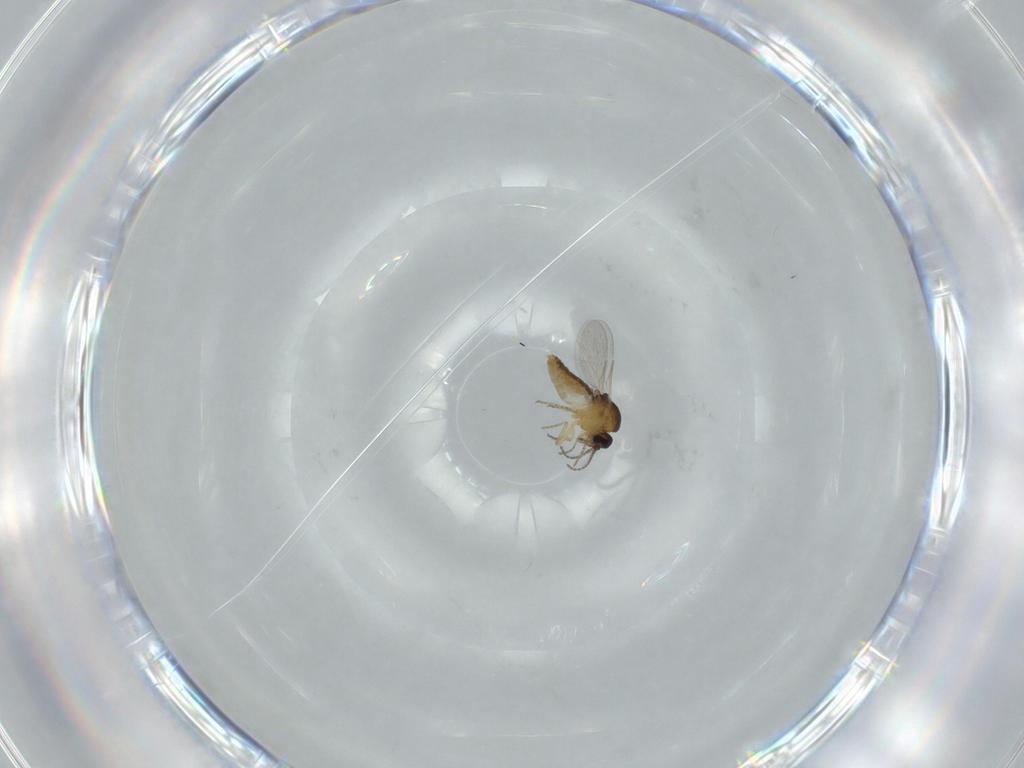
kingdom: Animalia
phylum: Arthropoda
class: Insecta
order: Diptera
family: Ceratopogonidae
